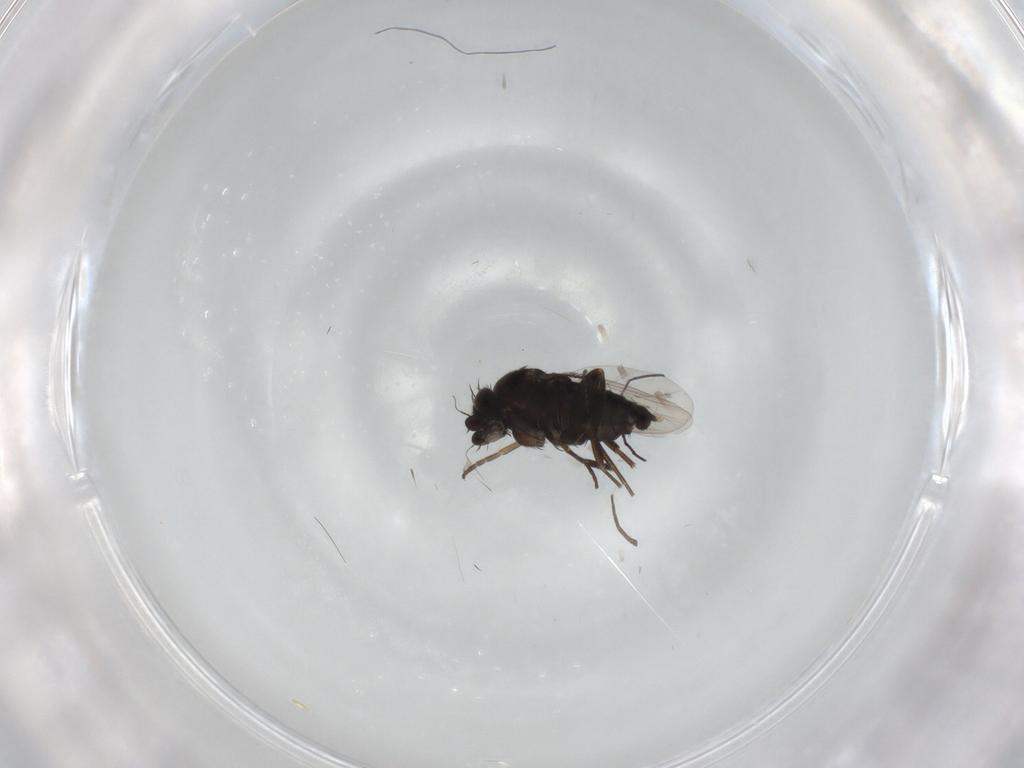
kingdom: Animalia
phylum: Arthropoda
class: Insecta
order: Diptera
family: Phoridae
